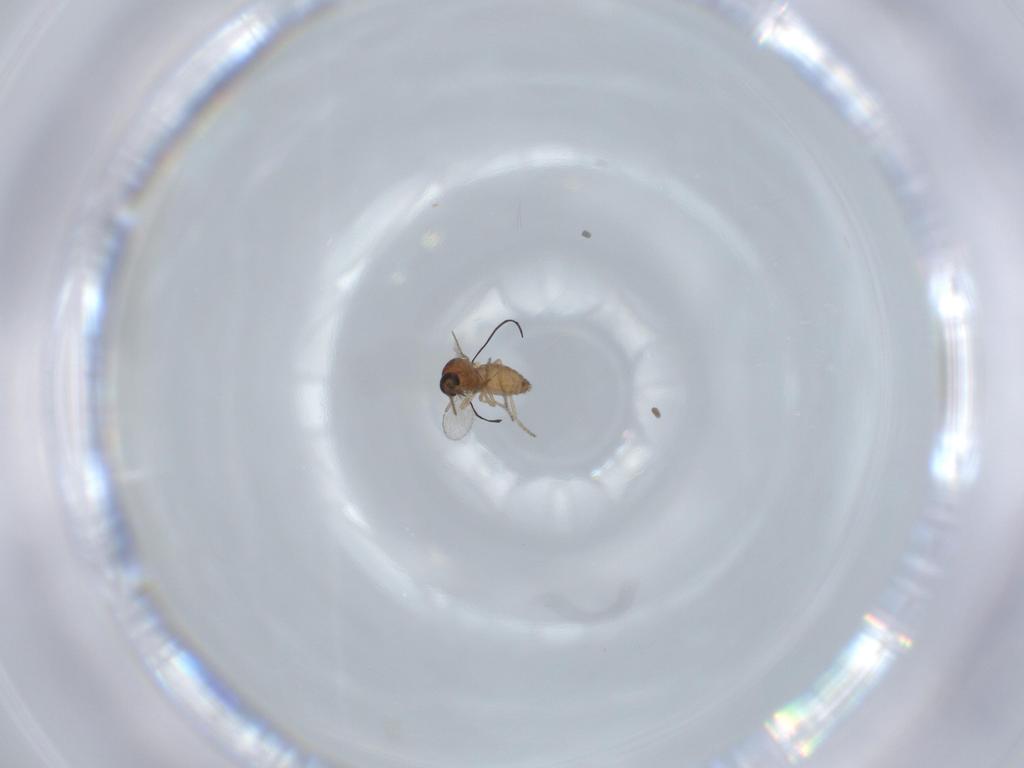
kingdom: Animalia
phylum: Arthropoda
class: Insecta
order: Diptera
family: Ceratopogonidae
